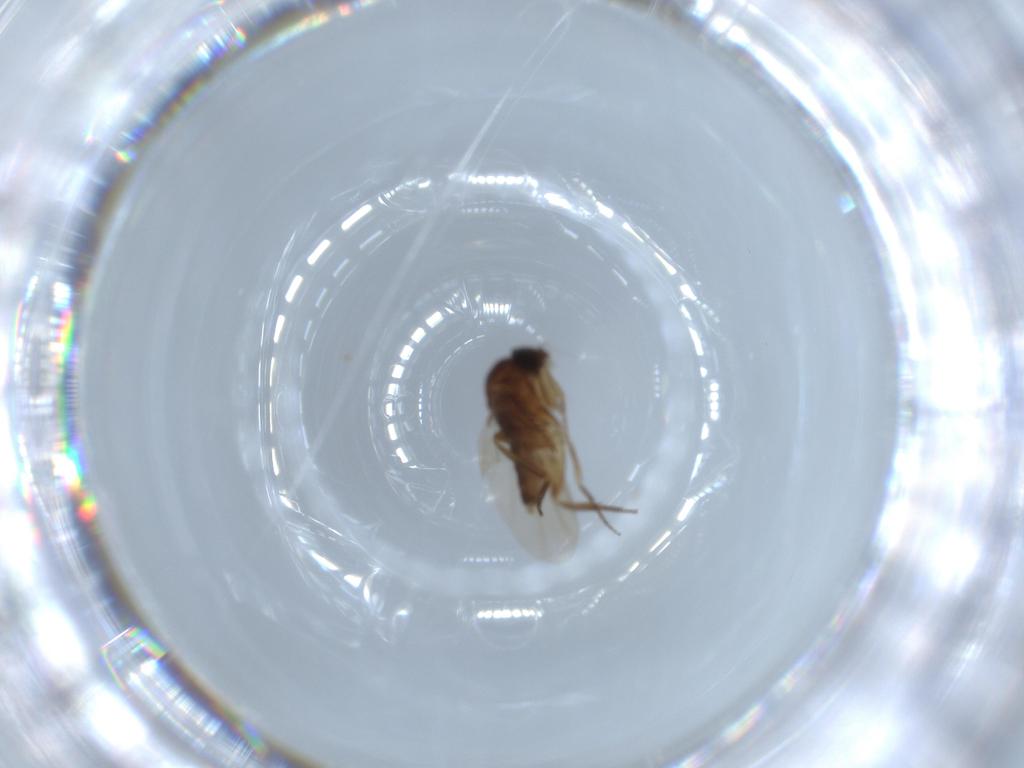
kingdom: Animalia
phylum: Arthropoda
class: Insecta
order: Diptera
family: Phoridae
